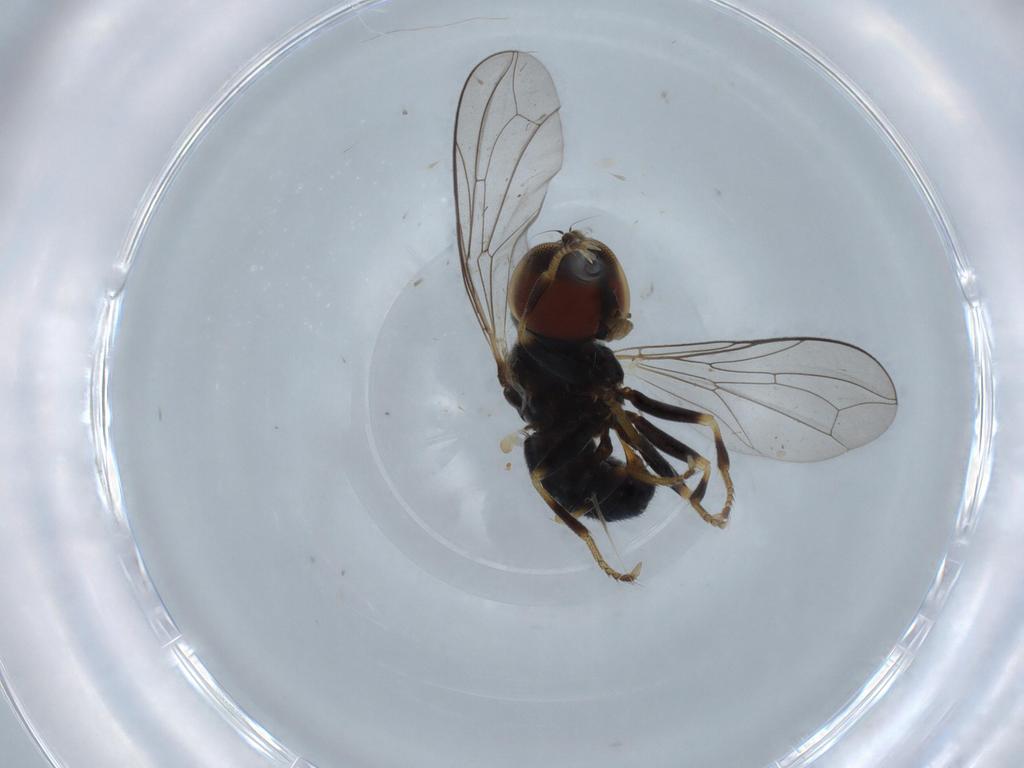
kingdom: Animalia
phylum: Arthropoda
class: Insecta
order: Diptera
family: Pipunculidae
